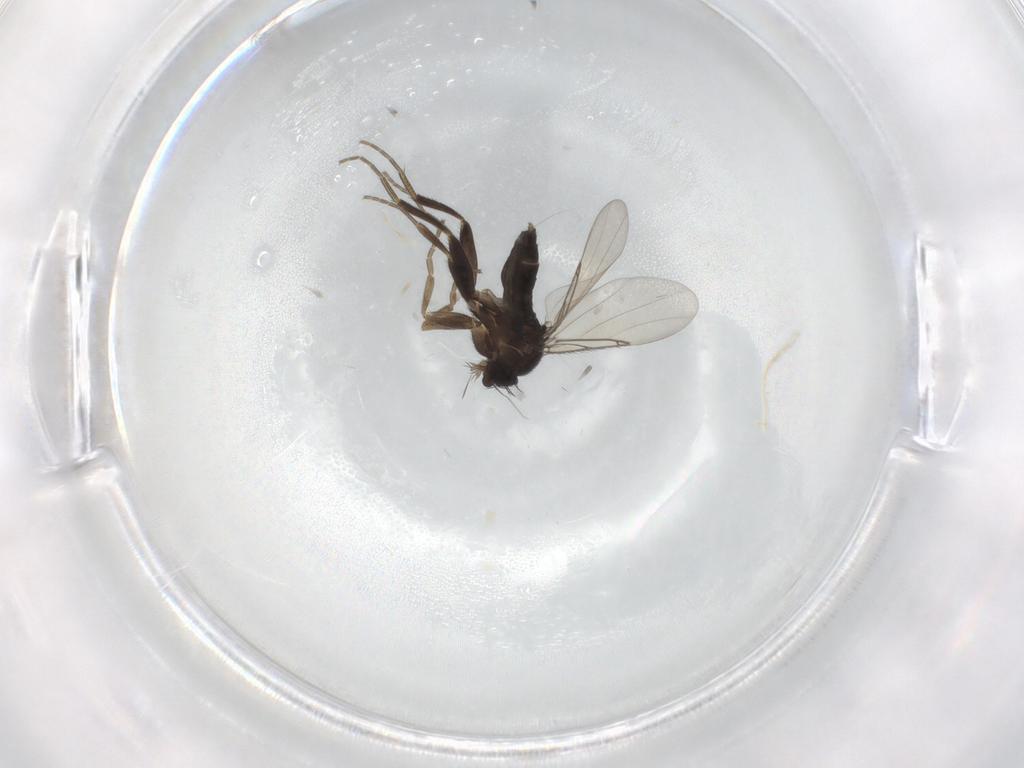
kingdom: Animalia
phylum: Arthropoda
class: Insecta
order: Diptera
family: Phoridae
